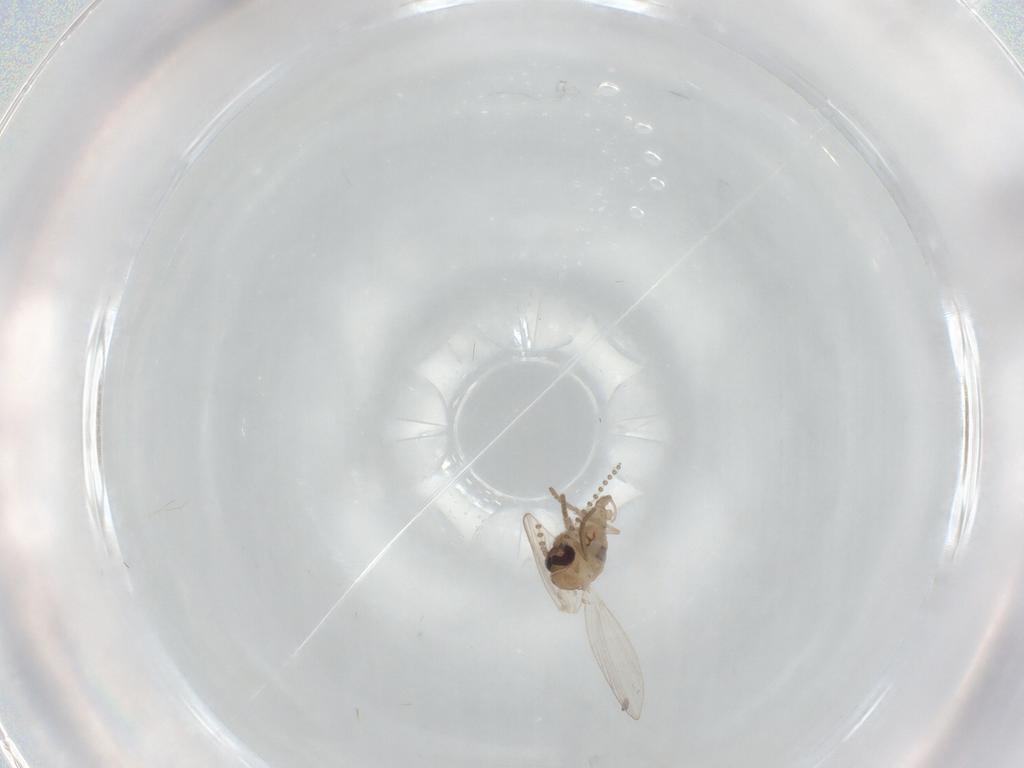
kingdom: Animalia
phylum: Arthropoda
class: Insecta
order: Diptera
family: Psychodidae
